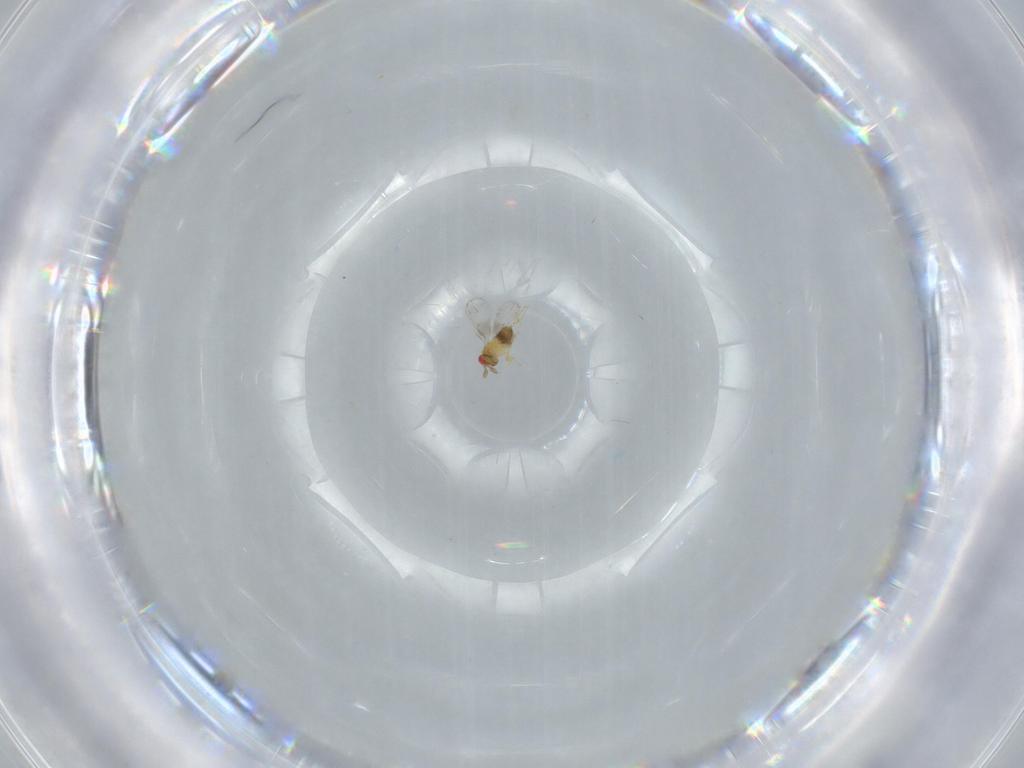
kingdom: Animalia
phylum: Arthropoda
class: Insecta
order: Hymenoptera
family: Trichogrammatidae
